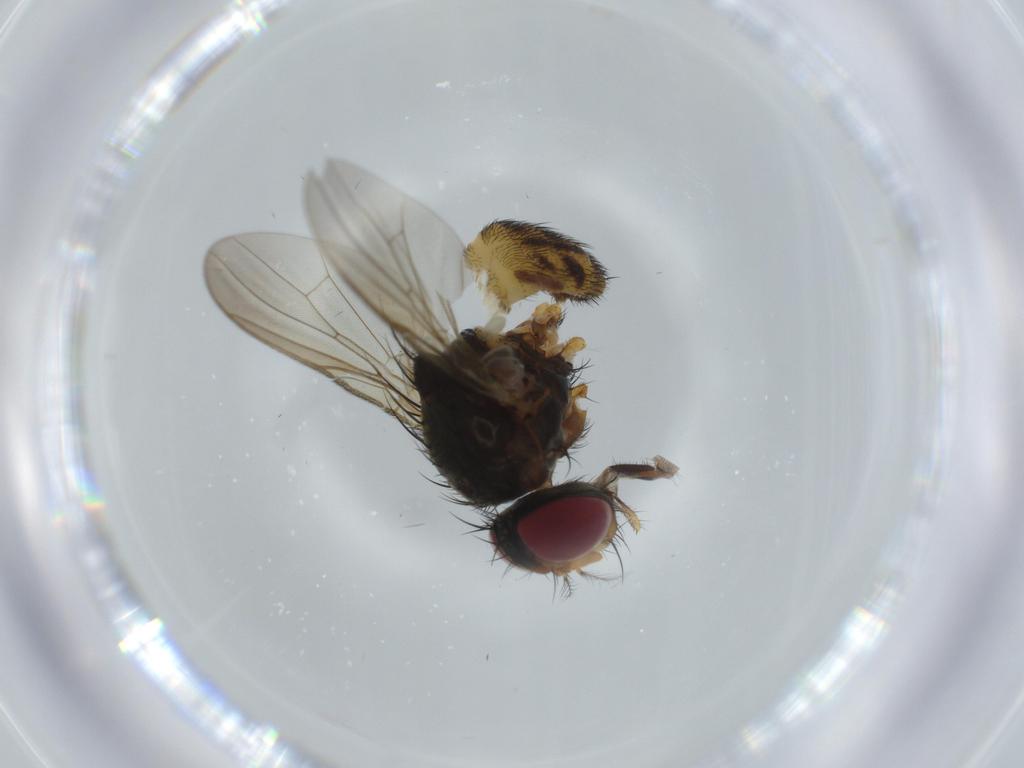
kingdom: Animalia
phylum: Arthropoda
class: Insecta
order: Diptera
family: Anthomyiidae
